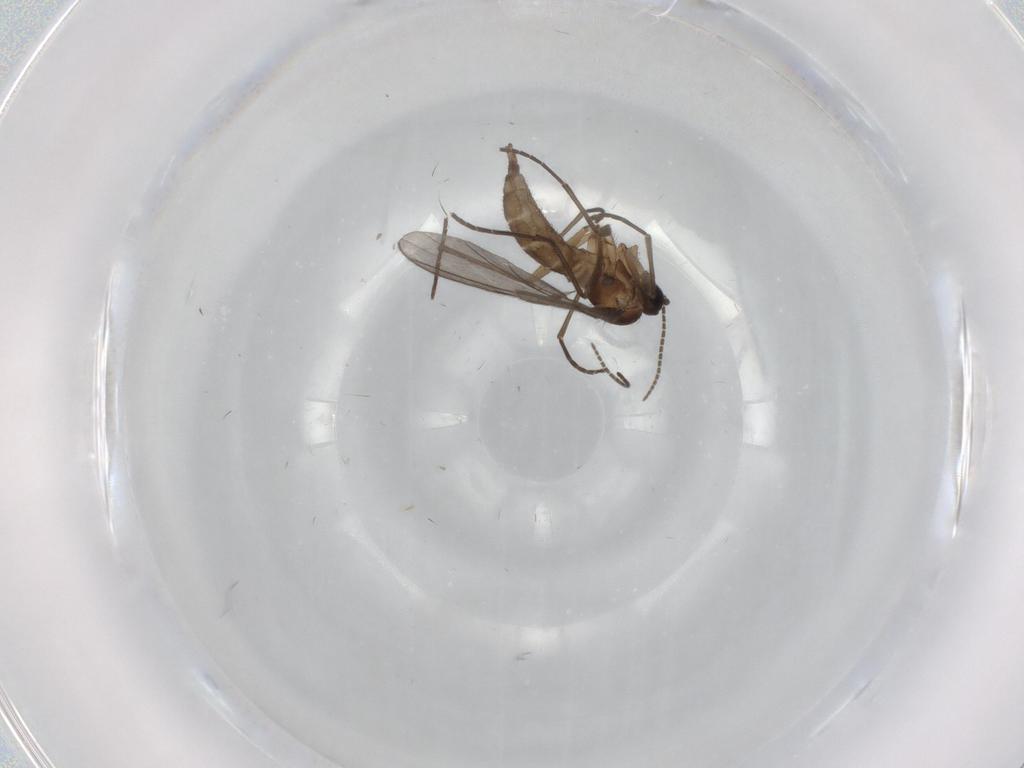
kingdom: Animalia
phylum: Arthropoda
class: Insecta
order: Diptera
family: Sciaridae
